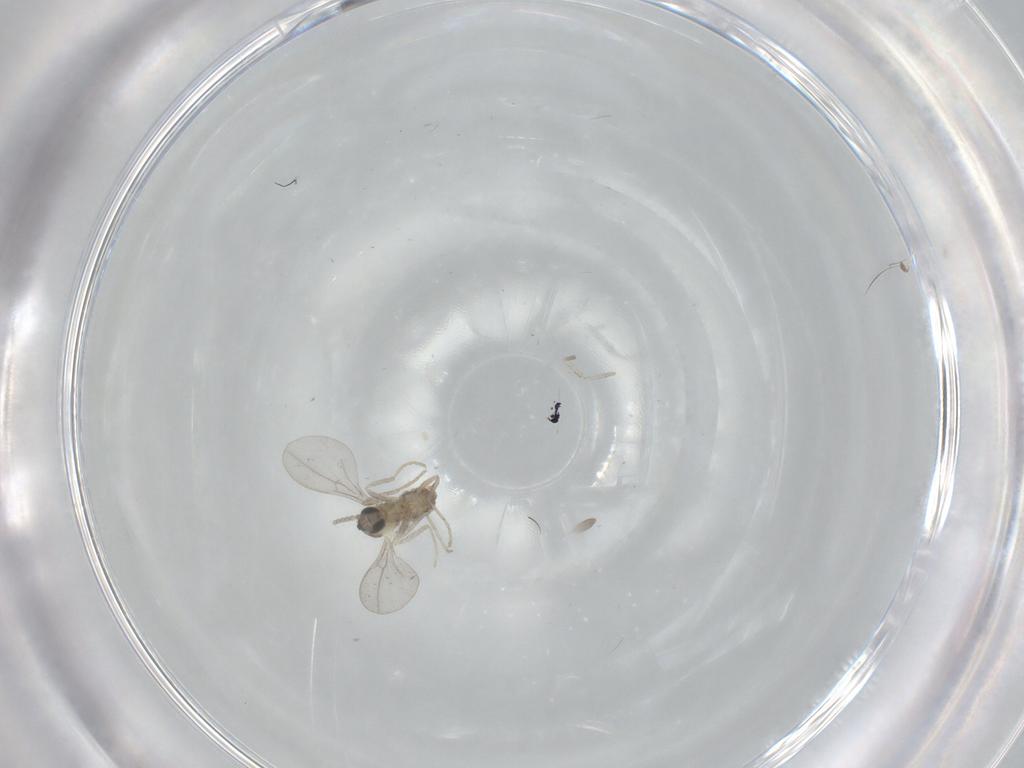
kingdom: Animalia
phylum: Arthropoda
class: Insecta
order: Diptera
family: Cecidomyiidae
